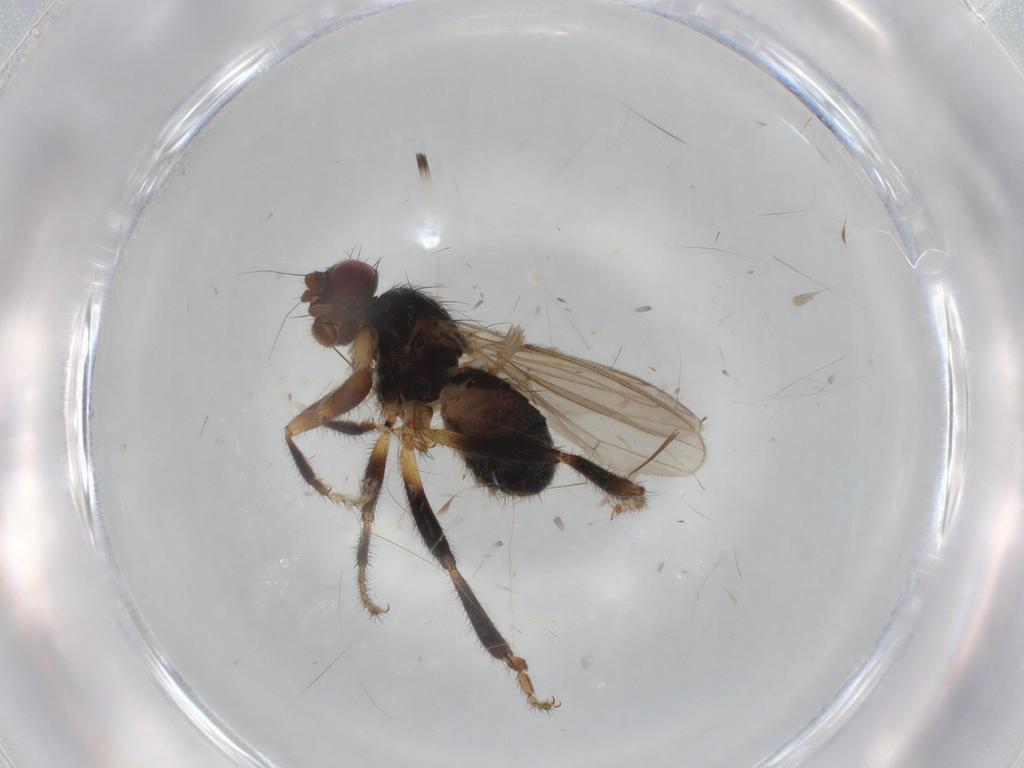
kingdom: Animalia
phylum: Arthropoda
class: Insecta
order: Diptera
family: Sphaeroceridae
